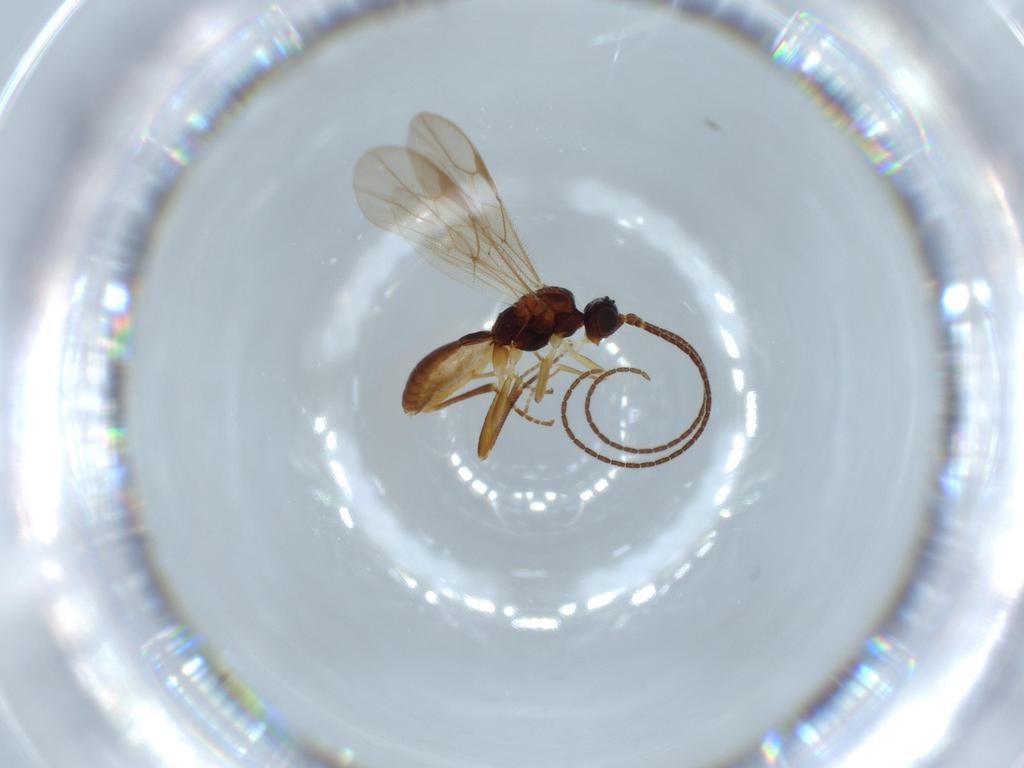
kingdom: Animalia
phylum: Arthropoda
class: Insecta
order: Hymenoptera
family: Braconidae
